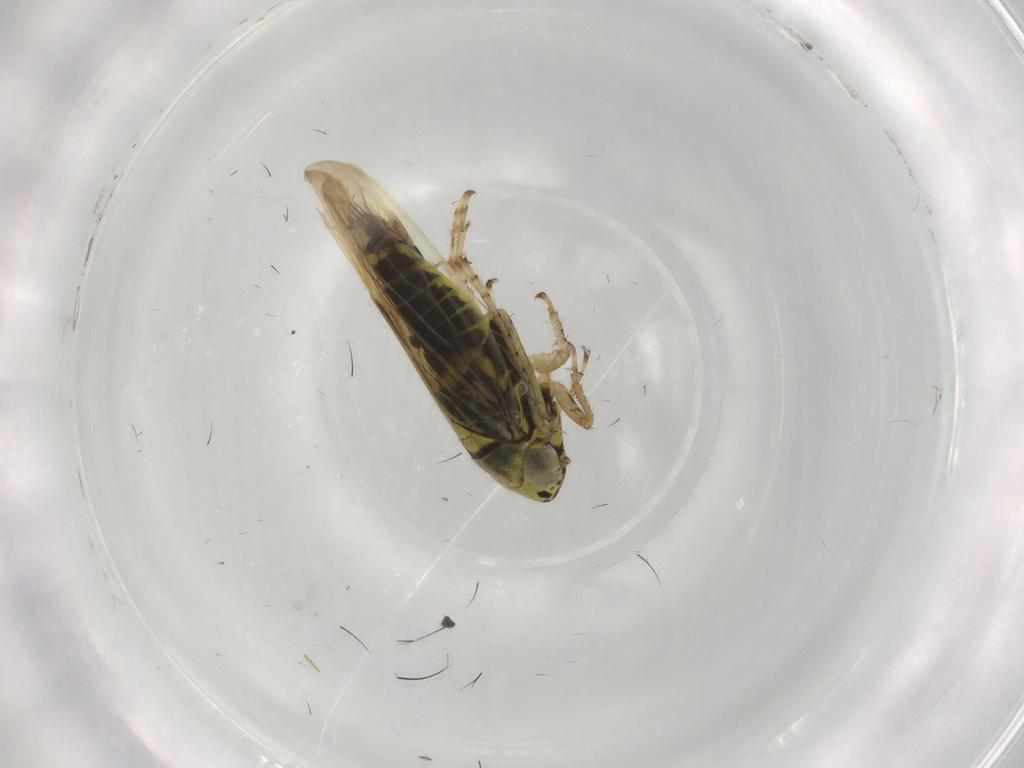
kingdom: Animalia
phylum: Arthropoda
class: Insecta
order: Hemiptera
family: Cicadellidae
